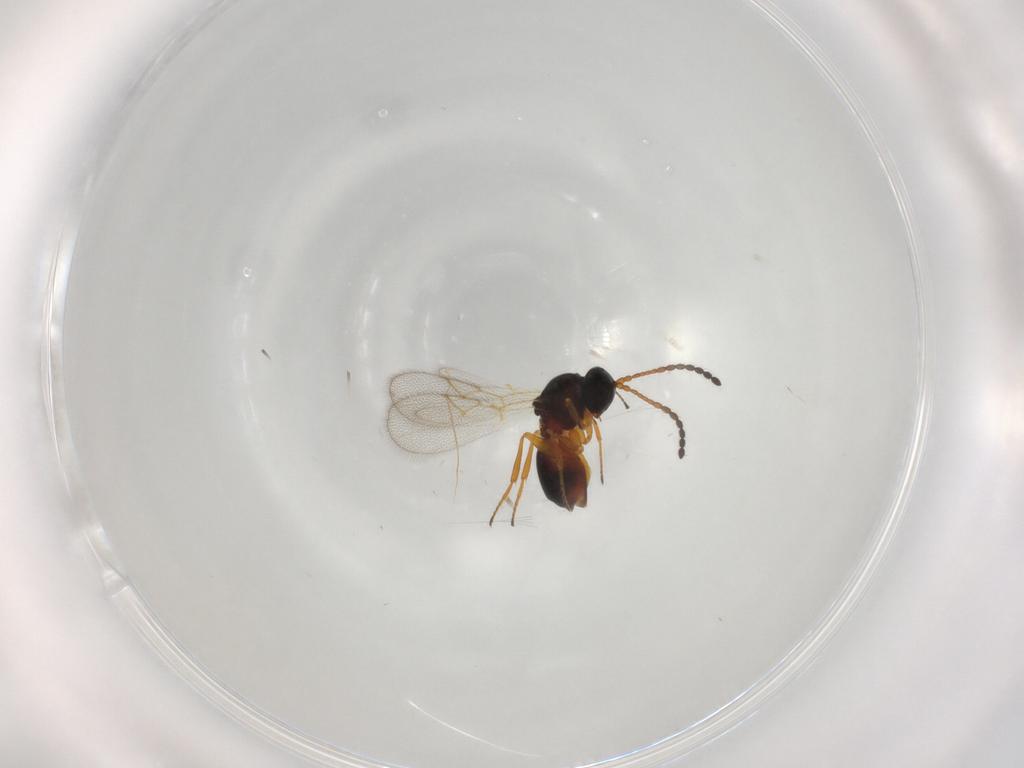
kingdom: Animalia
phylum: Arthropoda
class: Insecta
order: Hymenoptera
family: Figitidae
